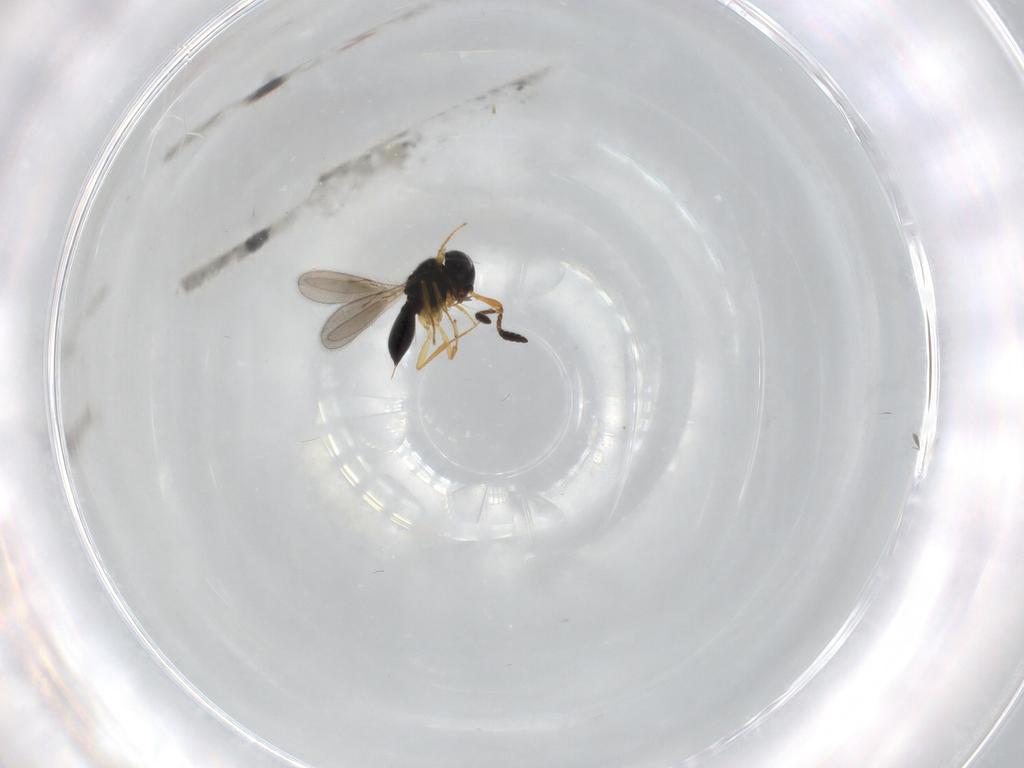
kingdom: Animalia
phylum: Arthropoda
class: Insecta
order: Hymenoptera
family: Scelionidae
